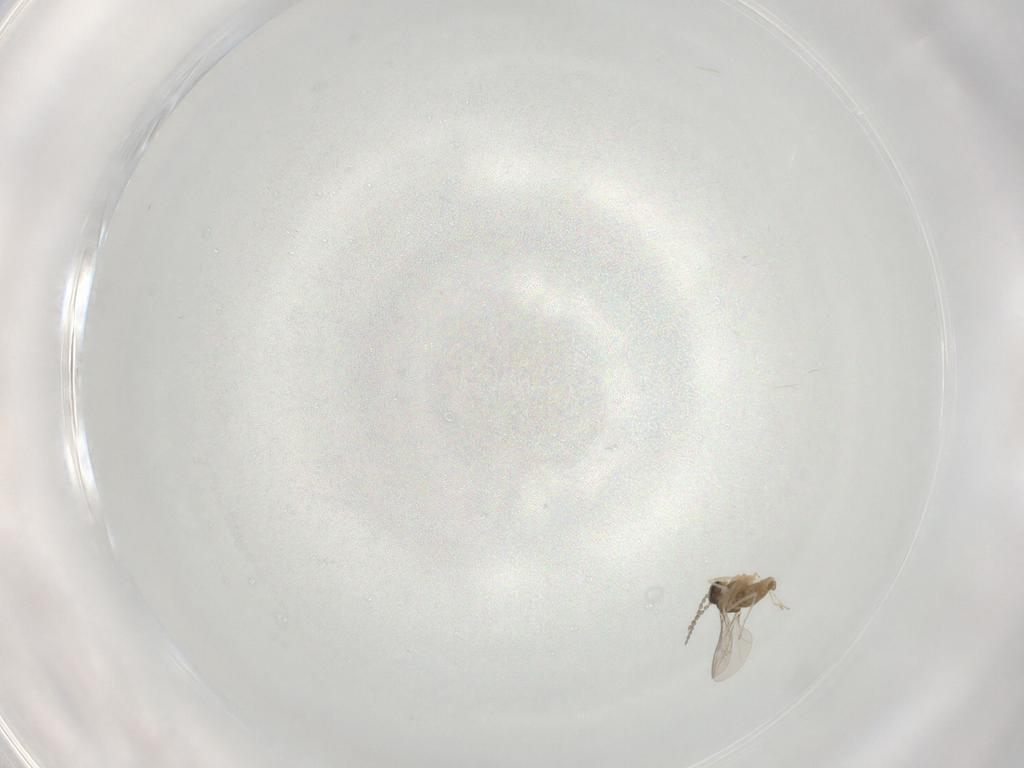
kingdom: Animalia
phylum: Arthropoda
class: Insecta
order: Diptera
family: Cecidomyiidae
